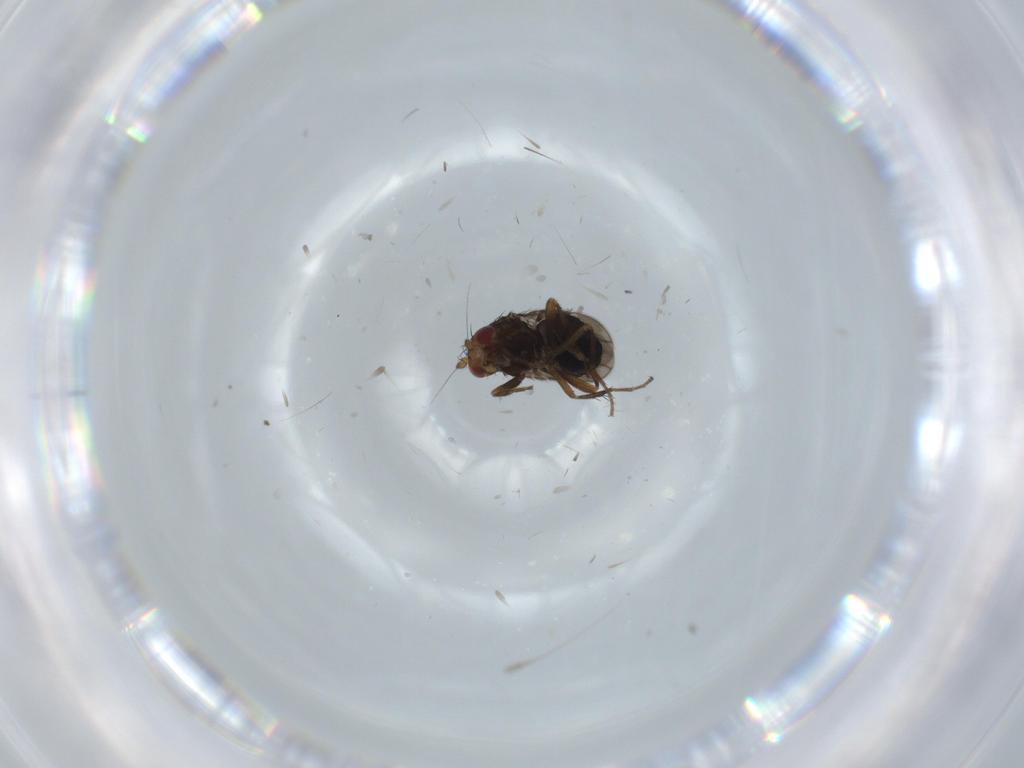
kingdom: Animalia
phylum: Arthropoda
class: Insecta
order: Diptera
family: Sphaeroceridae
